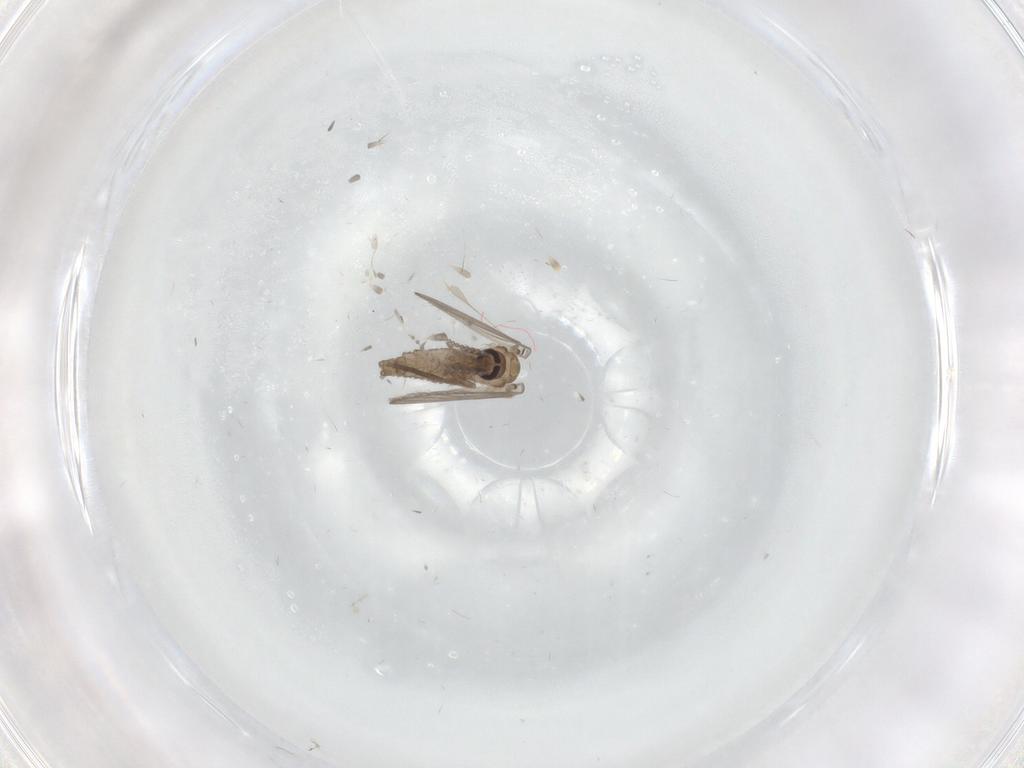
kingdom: Animalia
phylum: Arthropoda
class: Insecta
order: Diptera
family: Psychodidae
